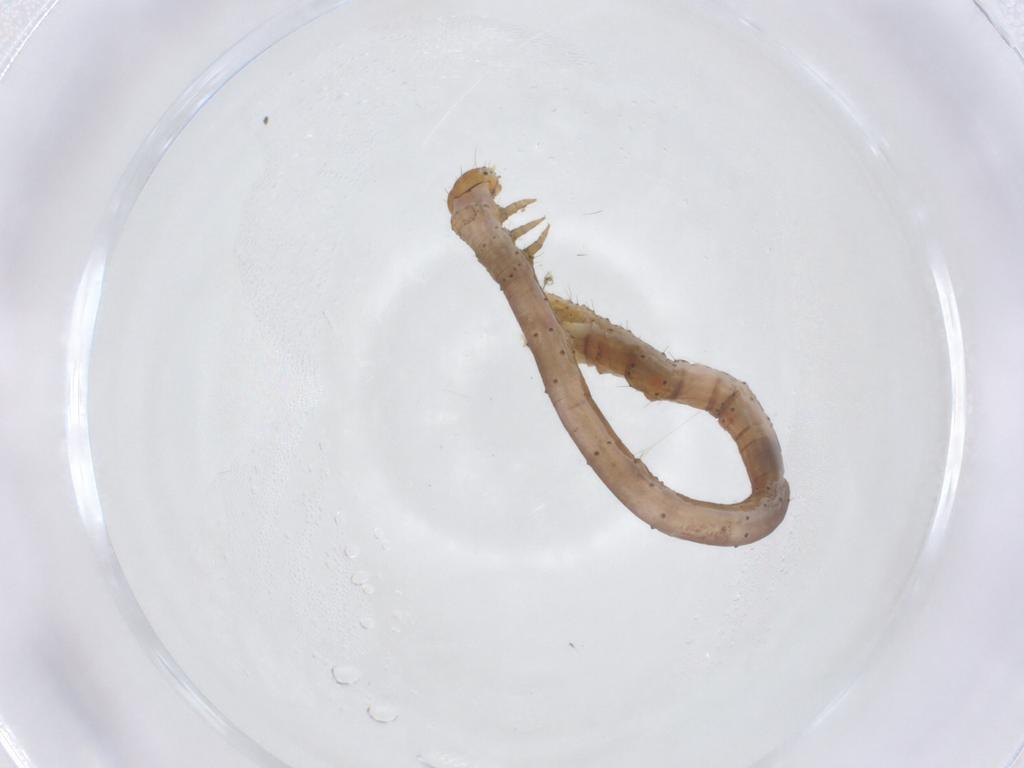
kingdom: Animalia
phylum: Arthropoda
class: Insecta
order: Lepidoptera
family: Geometridae
